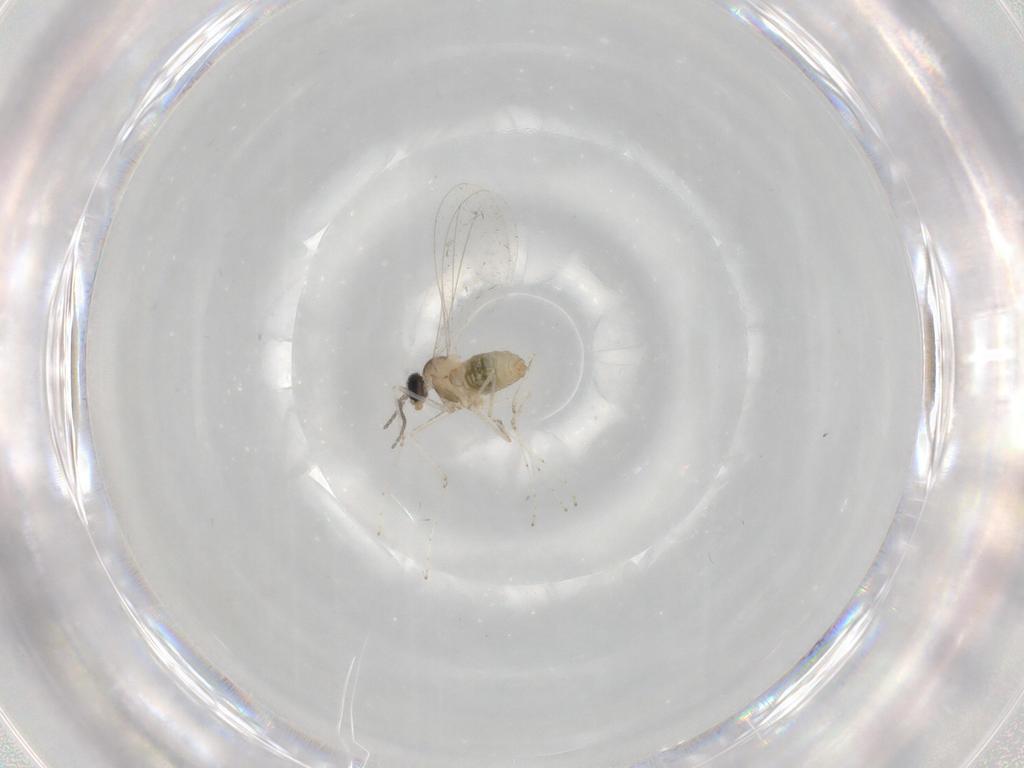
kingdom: Animalia
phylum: Arthropoda
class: Insecta
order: Diptera
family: Cecidomyiidae
